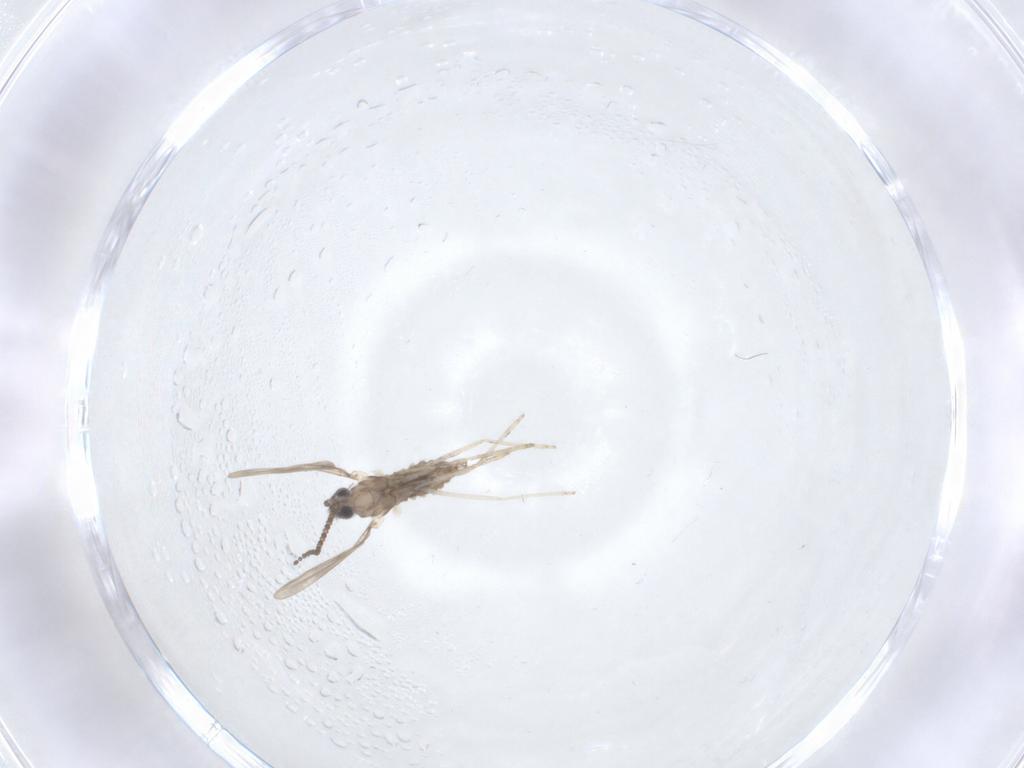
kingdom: Animalia
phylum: Arthropoda
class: Insecta
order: Diptera
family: Cecidomyiidae
